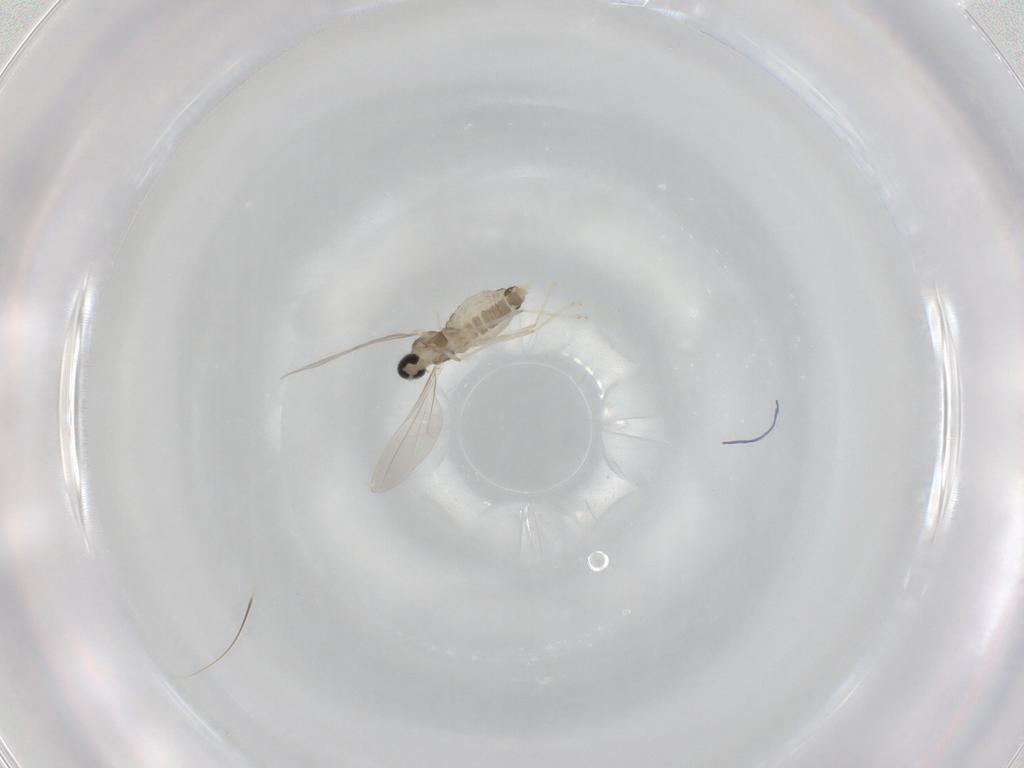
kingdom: Animalia
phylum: Arthropoda
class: Insecta
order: Diptera
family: Cecidomyiidae
